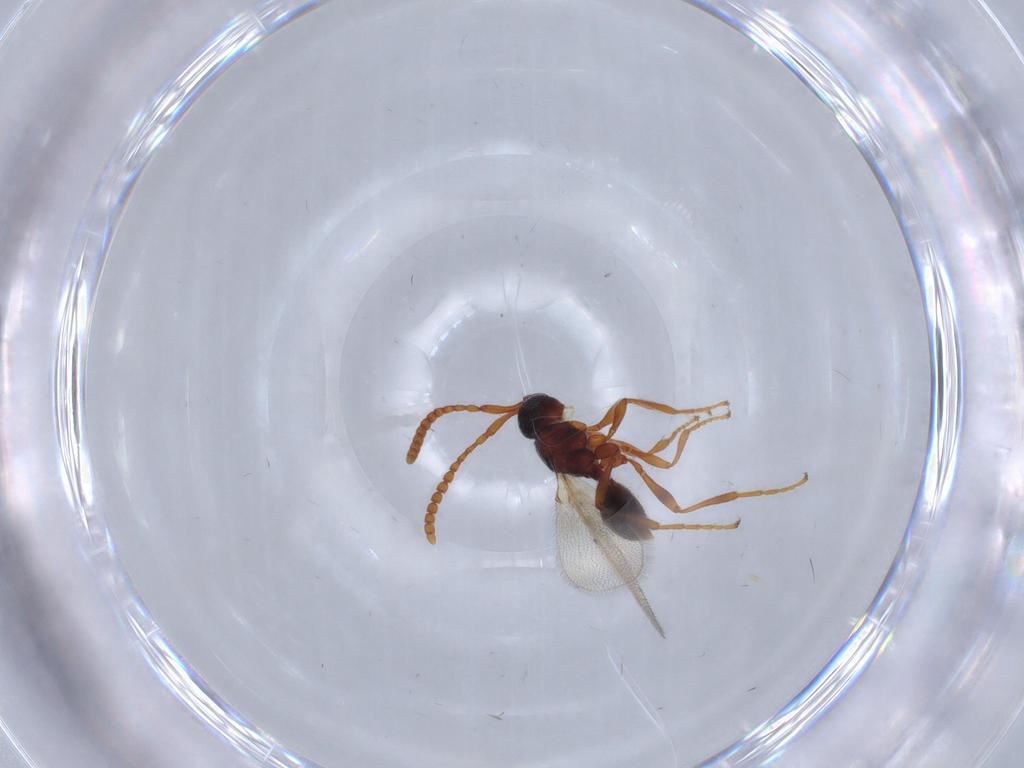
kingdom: Animalia
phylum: Arthropoda
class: Insecta
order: Hymenoptera
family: Diapriidae
